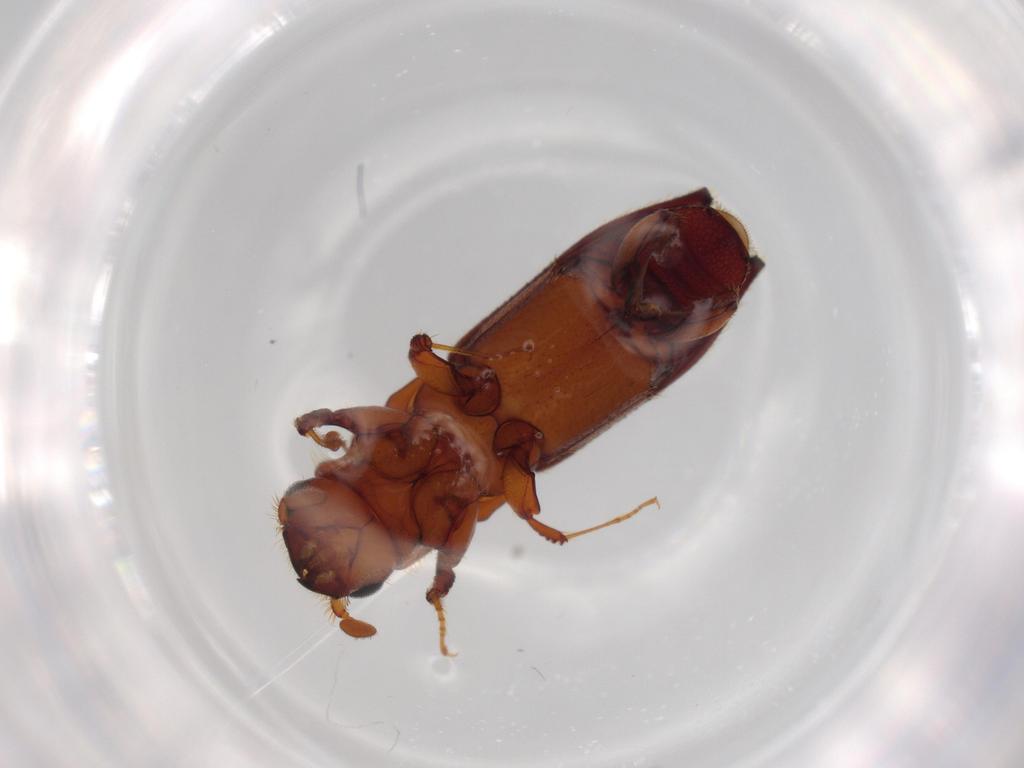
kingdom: Animalia
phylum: Arthropoda
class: Insecta
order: Coleoptera
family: Curculionidae
